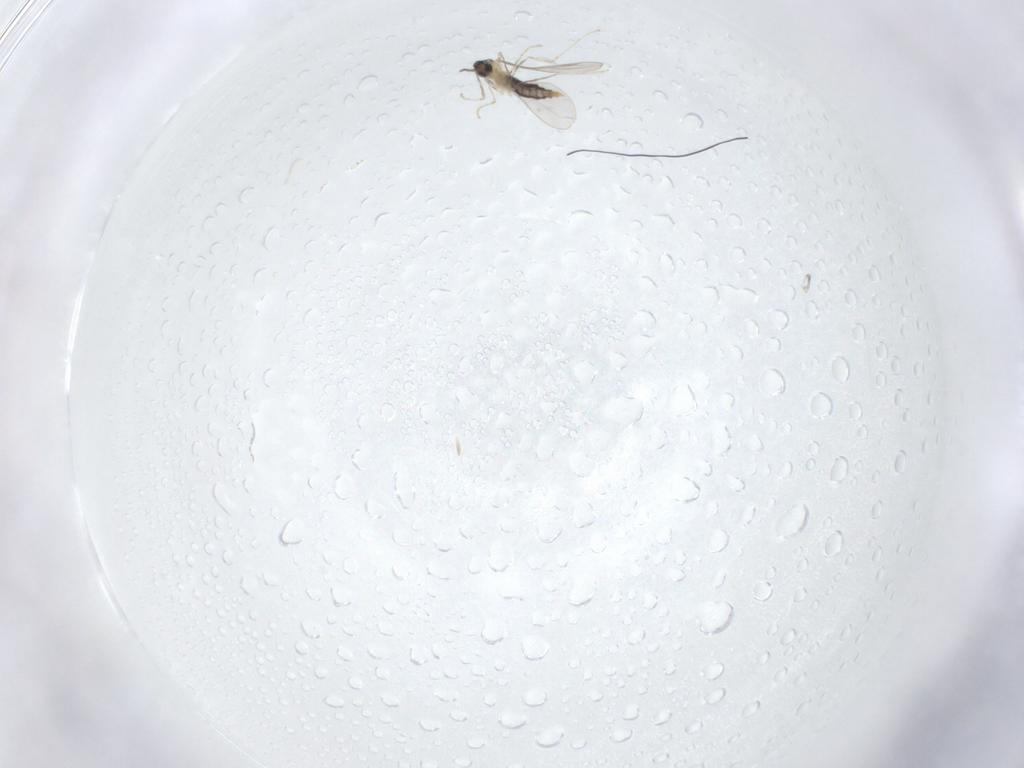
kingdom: Animalia
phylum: Arthropoda
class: Insecta
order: Diptera
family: Cecidomyiidae
